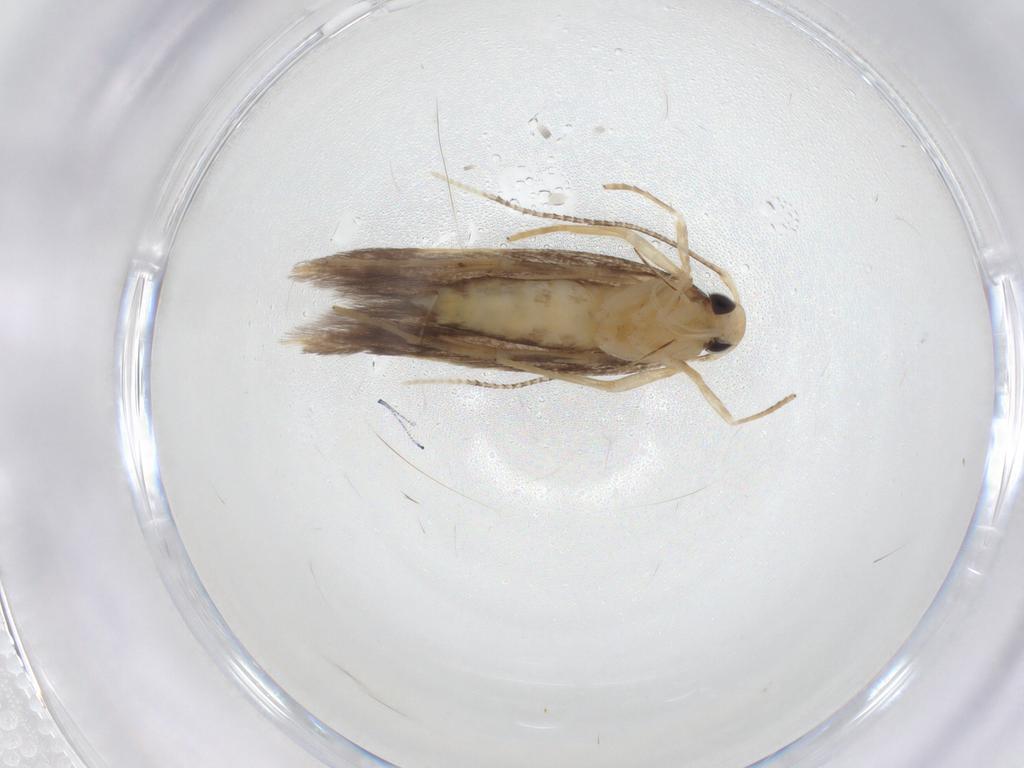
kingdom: Animalia
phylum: Arthropoda
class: Insecta
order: Lepidoptera
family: Cosmopterigidae
